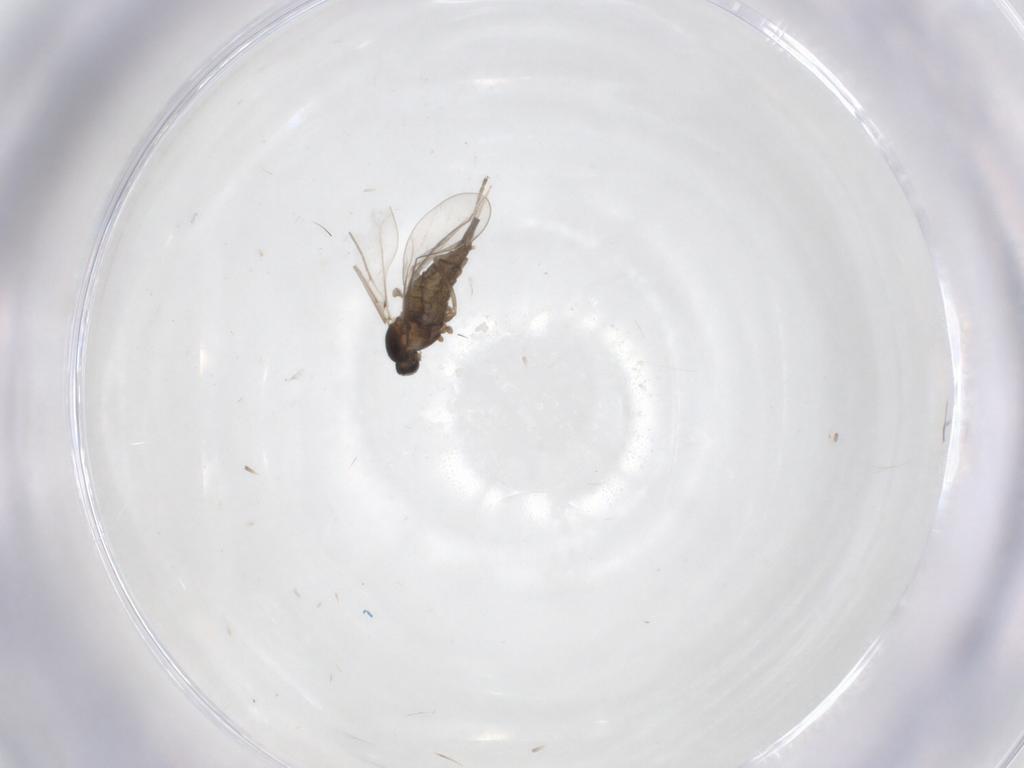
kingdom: Animalia
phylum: Arthropoda
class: Insecta
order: Diptera
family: Cecidomyiidae
